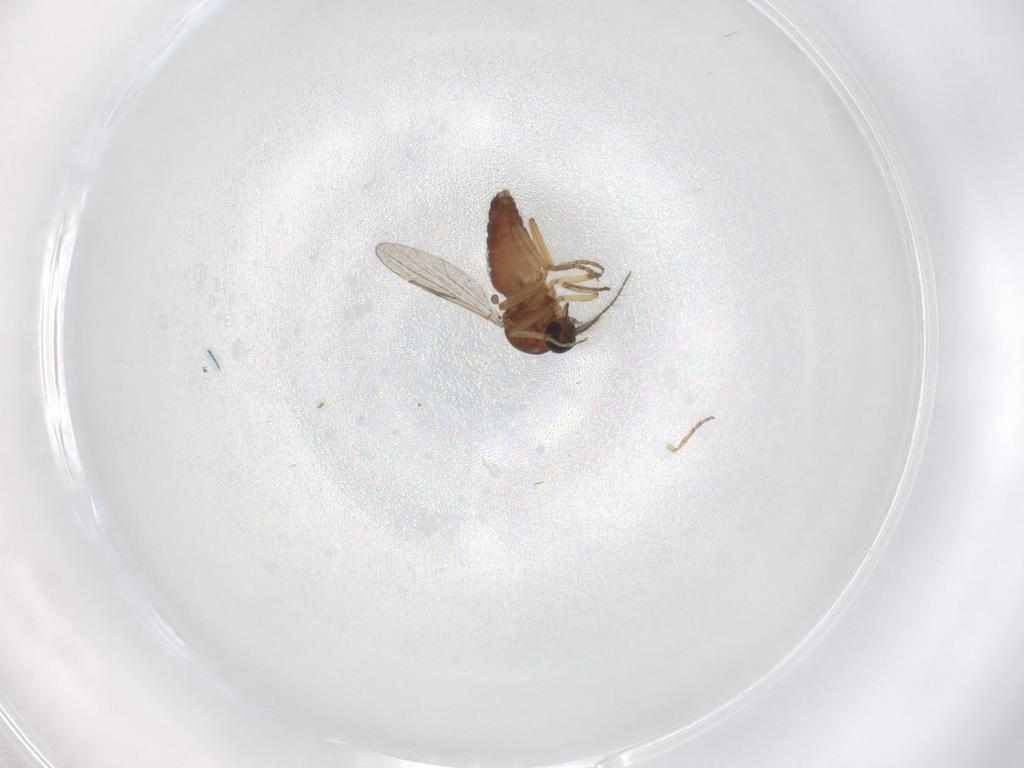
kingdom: Animalia
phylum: Arthropoda
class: Insecta
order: Diptera
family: Ceratopogonidae
